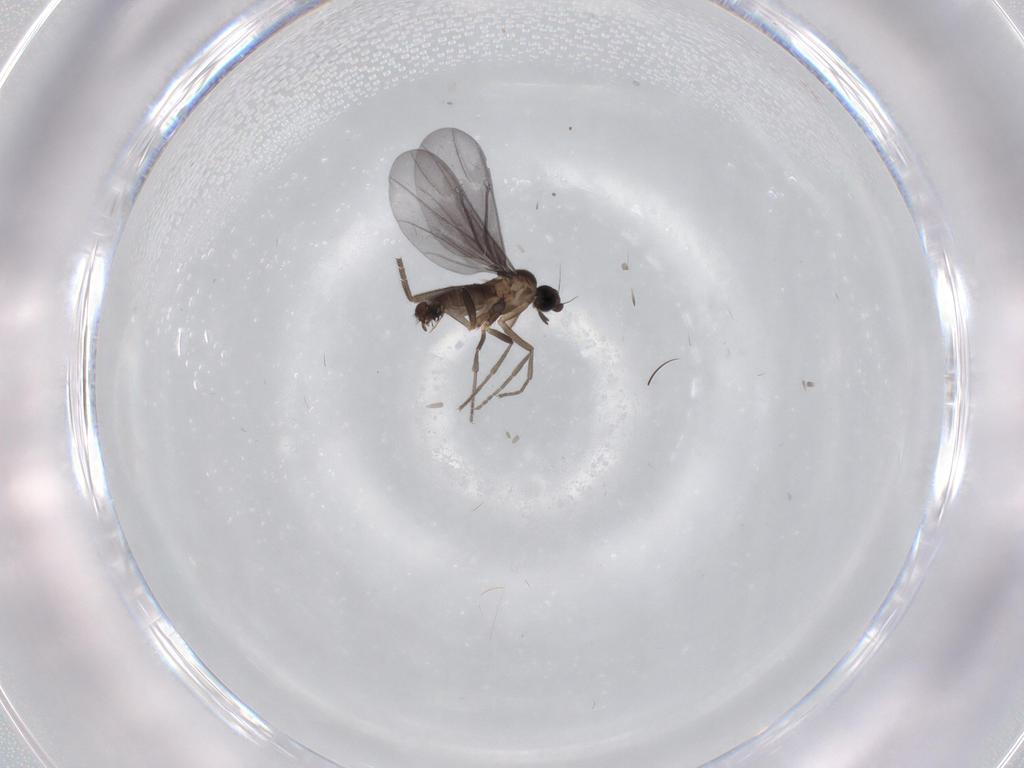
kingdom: Animalia
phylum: Arthropoda
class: Insecta
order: Diptera
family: Phoridae
